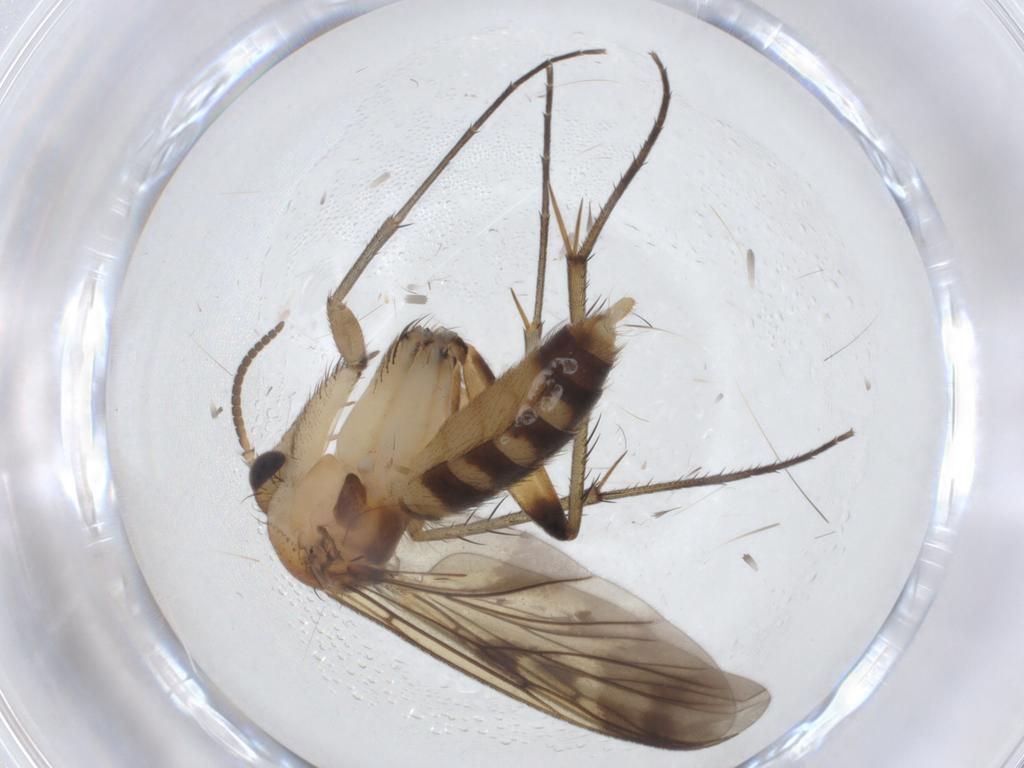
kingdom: Animalia
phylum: Arthropoda
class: Insecta
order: Diptera
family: Mycetophilidae
